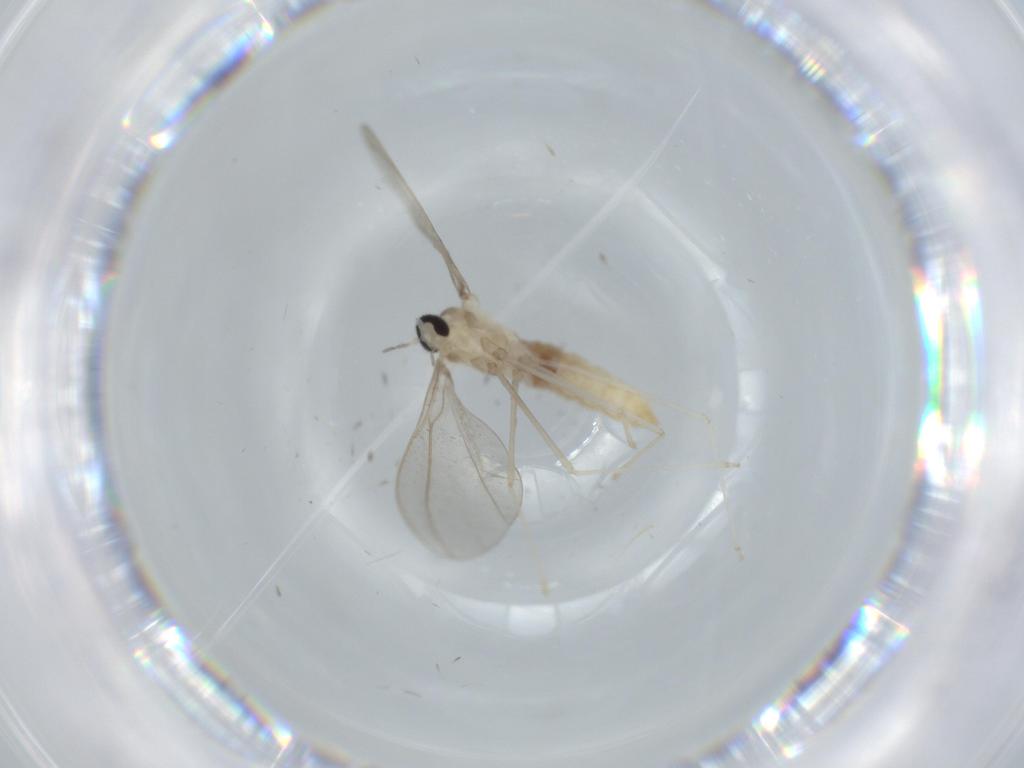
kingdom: Animalia
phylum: Arthropoda
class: Insecta
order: Diptera
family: Cecidomyiidae
